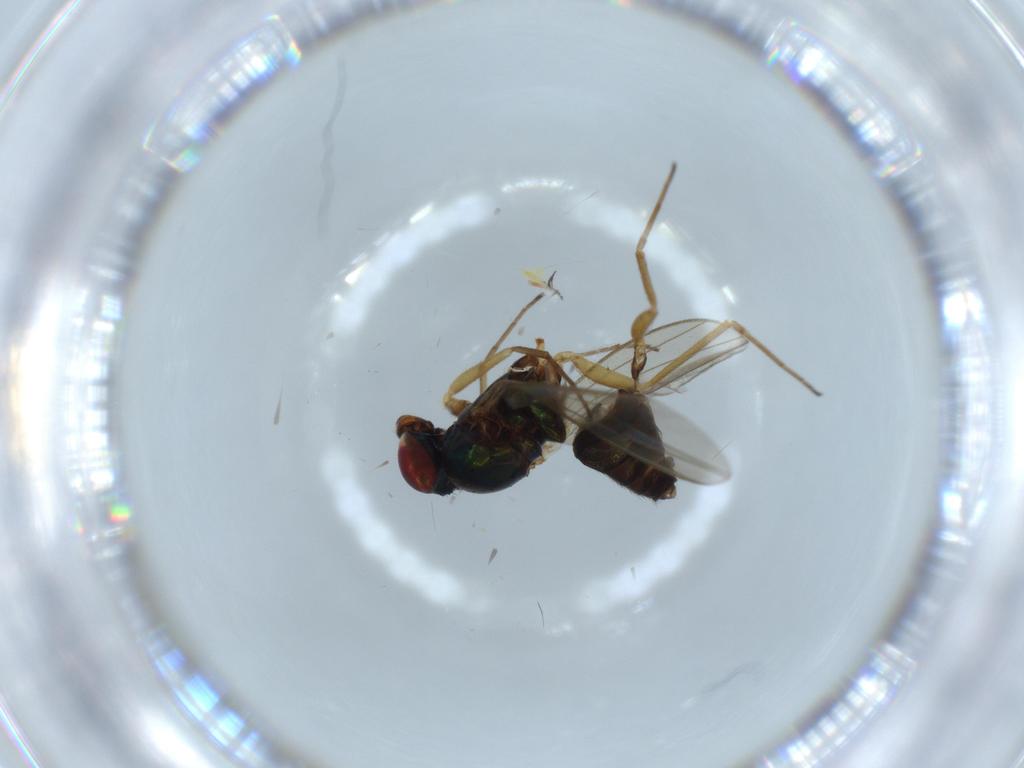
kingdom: Animalia
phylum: Arthropoda
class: Insecta
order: Diptera
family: Dolichopodidae
